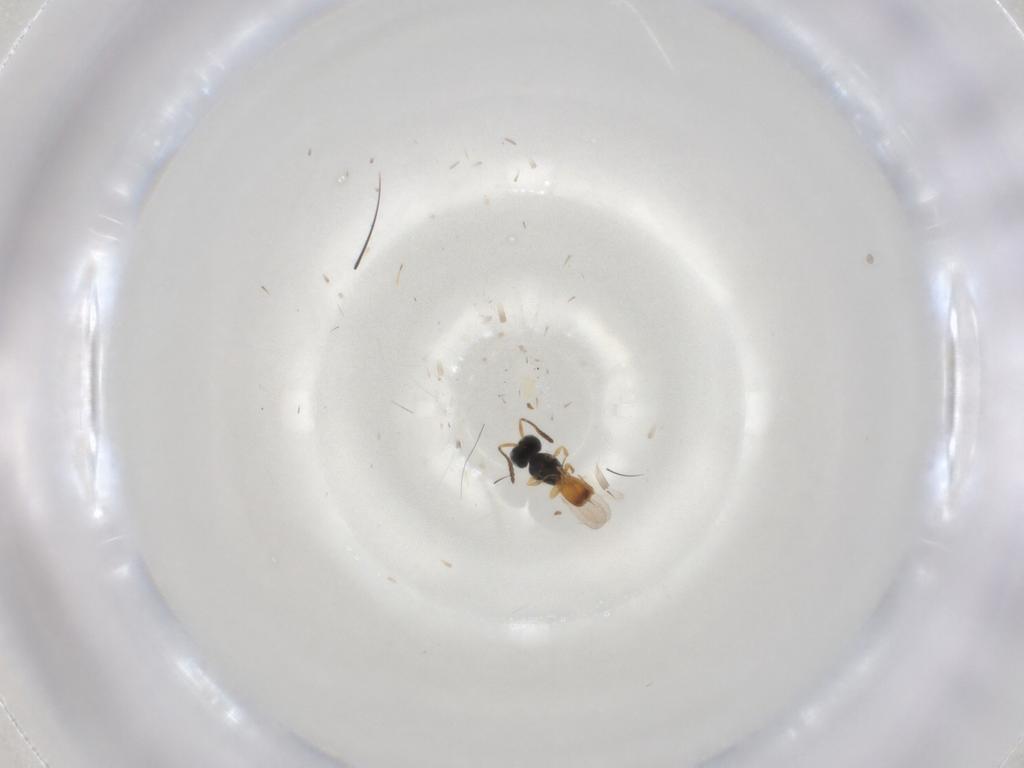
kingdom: Animalia
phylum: Arthropoda
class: Insecta
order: Hymenoptera
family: Scelionidae
